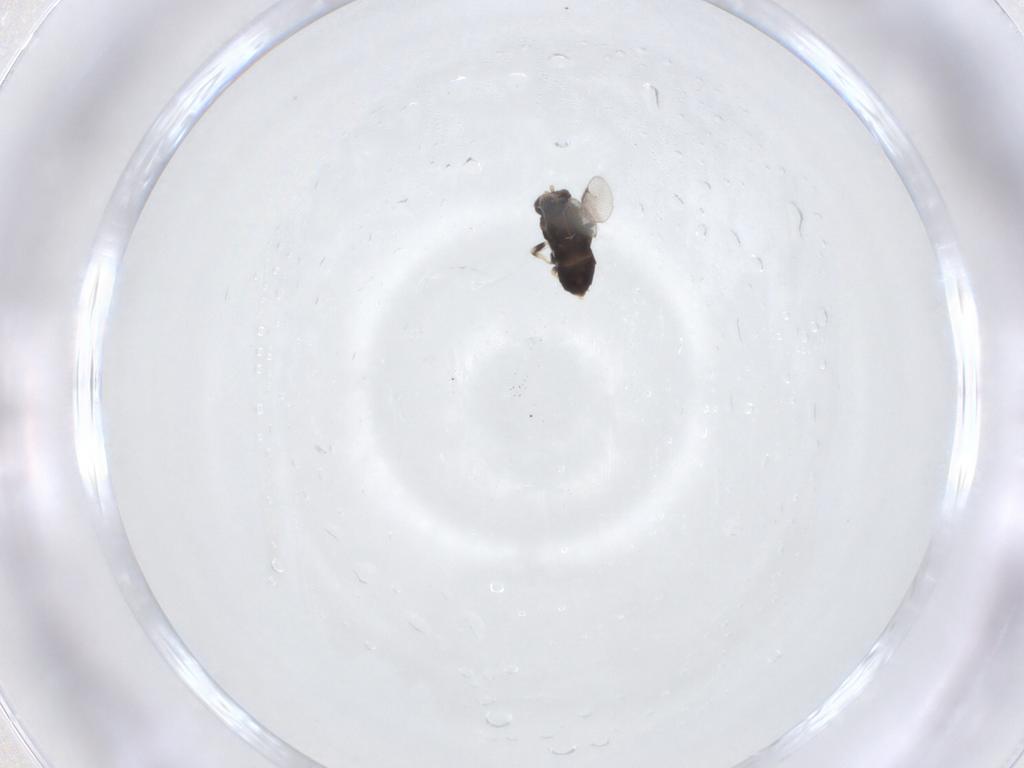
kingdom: Animalia
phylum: Arthropoda
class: Insecta
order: Hymenoptera
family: Aphelinidae
